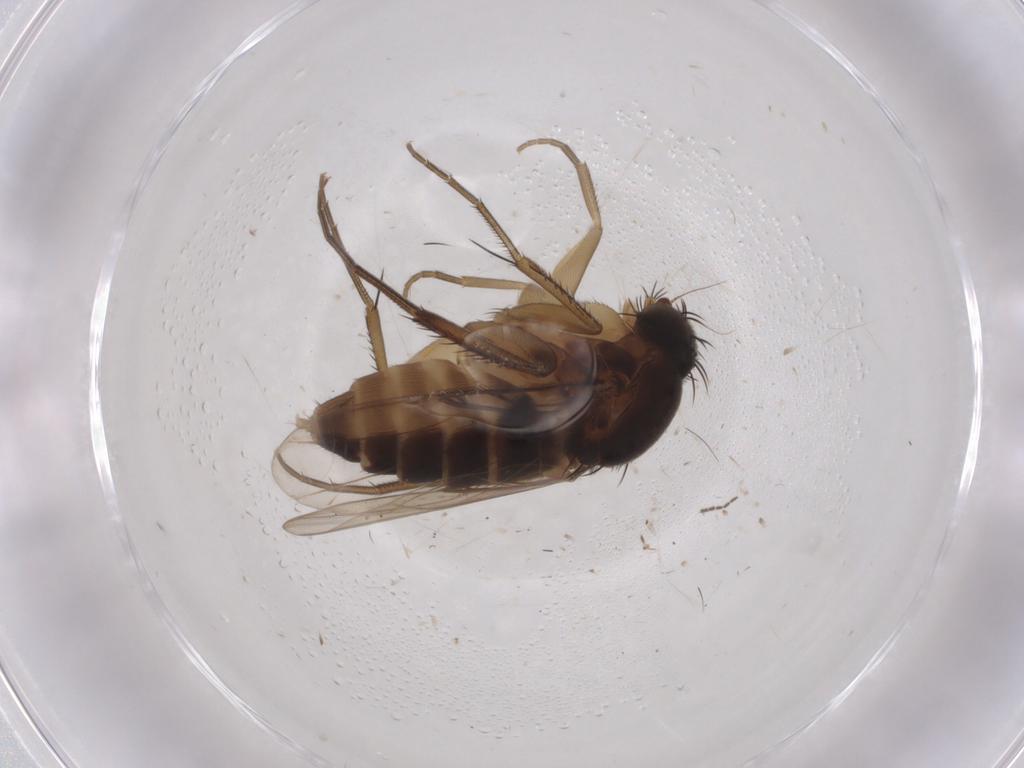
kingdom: Animalia
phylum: Arthropoda
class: Insecta
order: Diptera
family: Phoridae
